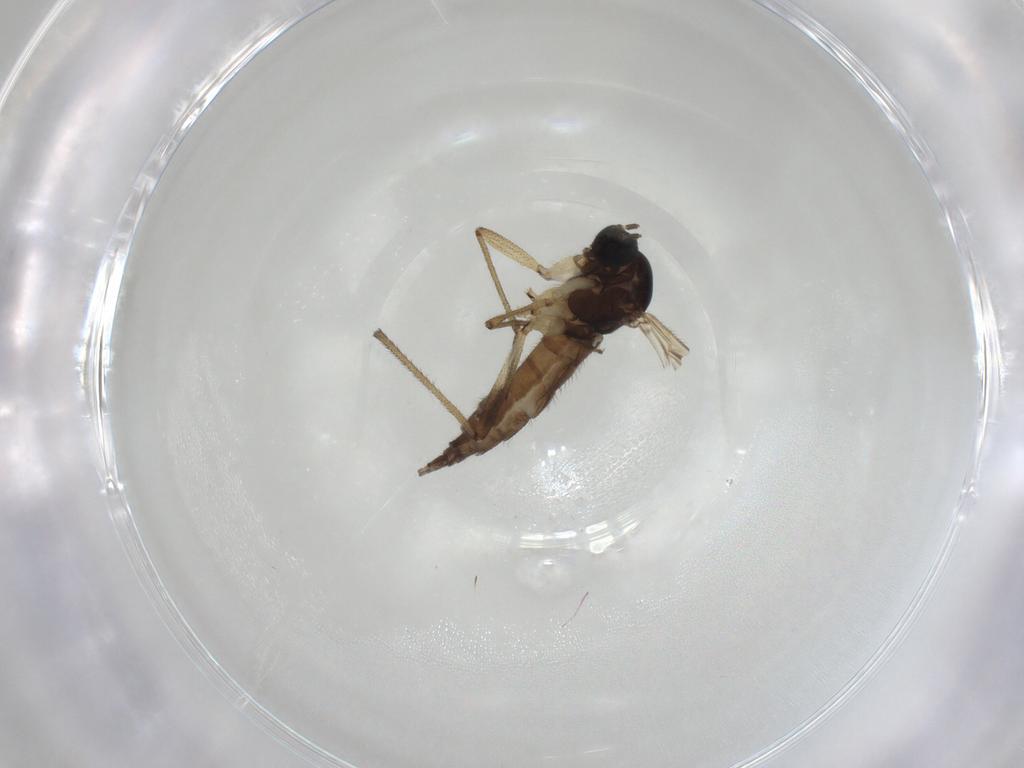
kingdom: Animalia
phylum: Arthropoda
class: Insecta
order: Diptera
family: Sciaridae
